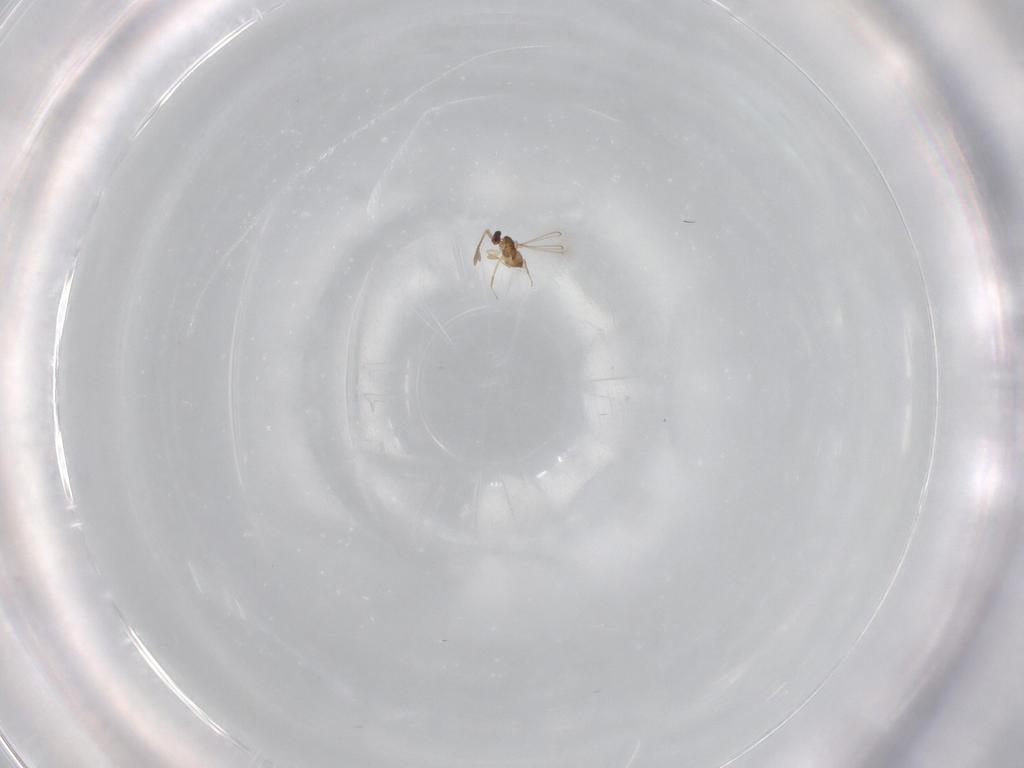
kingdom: Animalia
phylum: Arthropoda
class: Insecta
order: Hymenoptera
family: Mymaridae
